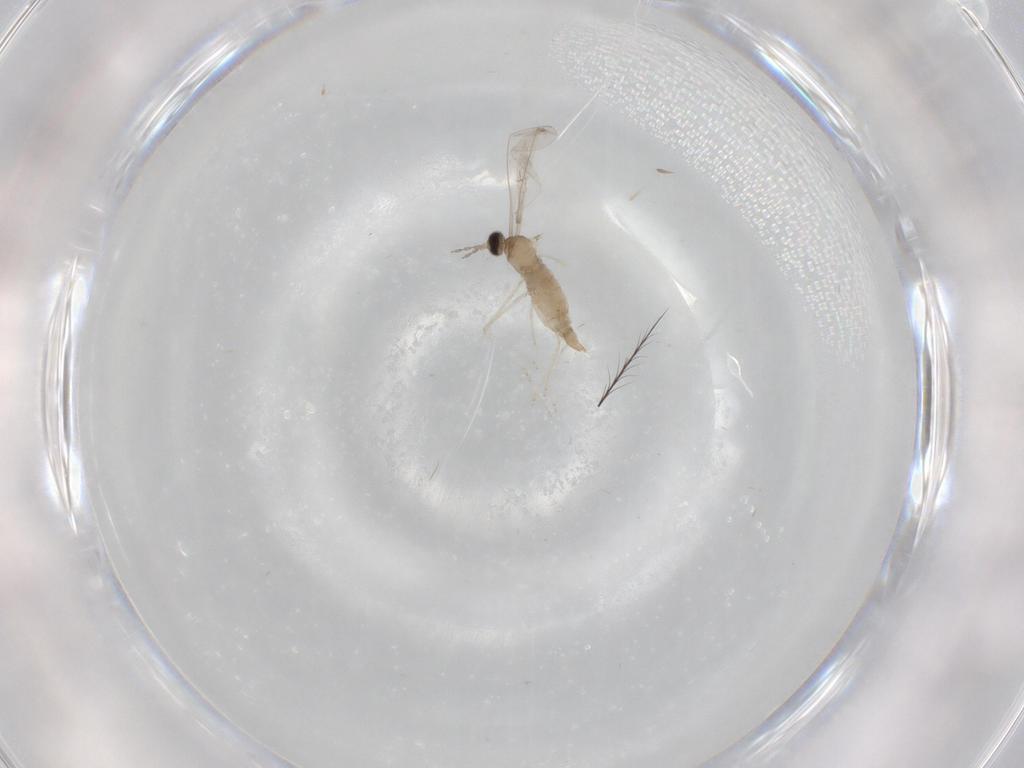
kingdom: Animalia
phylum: Arthropoda
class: Insecta
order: Diptera
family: Cecidomyiidae
